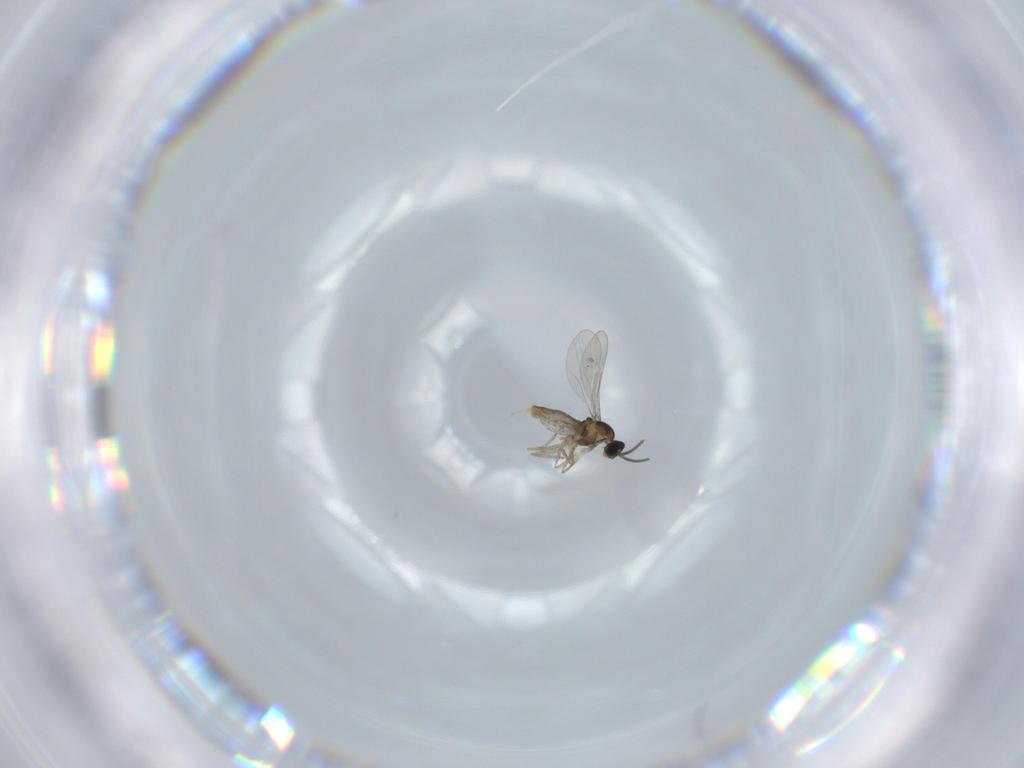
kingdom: Animalia
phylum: Arthropoda
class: Insecta
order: Diptera
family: Cecidomyiidae
